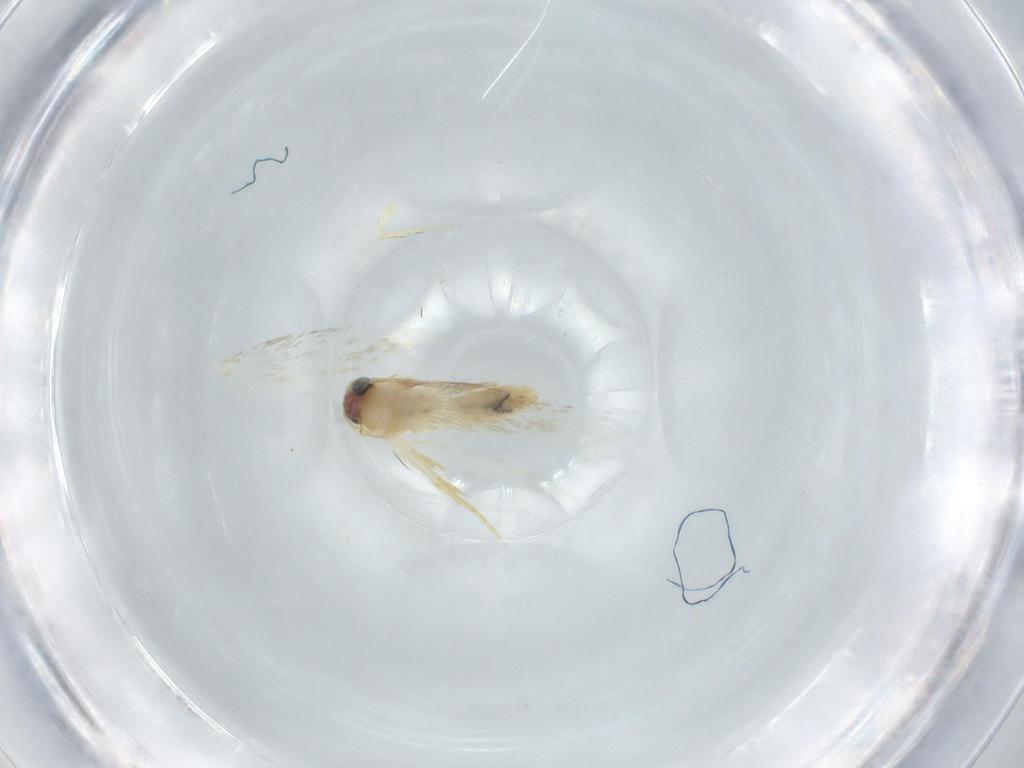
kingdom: Animalia
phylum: Arthropoda
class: Insecta
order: Lepidoptera
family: Nepticulidae
